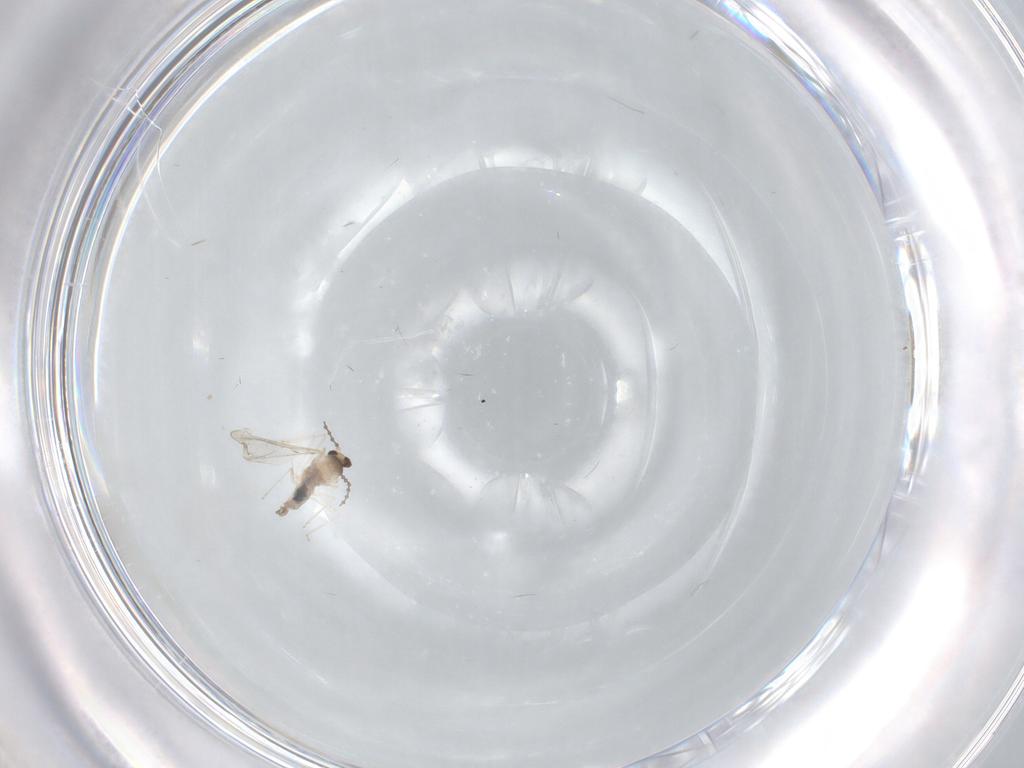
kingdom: Animalia
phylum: Arthropoda
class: Insecta
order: Diptera
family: Cecidomyiidae
